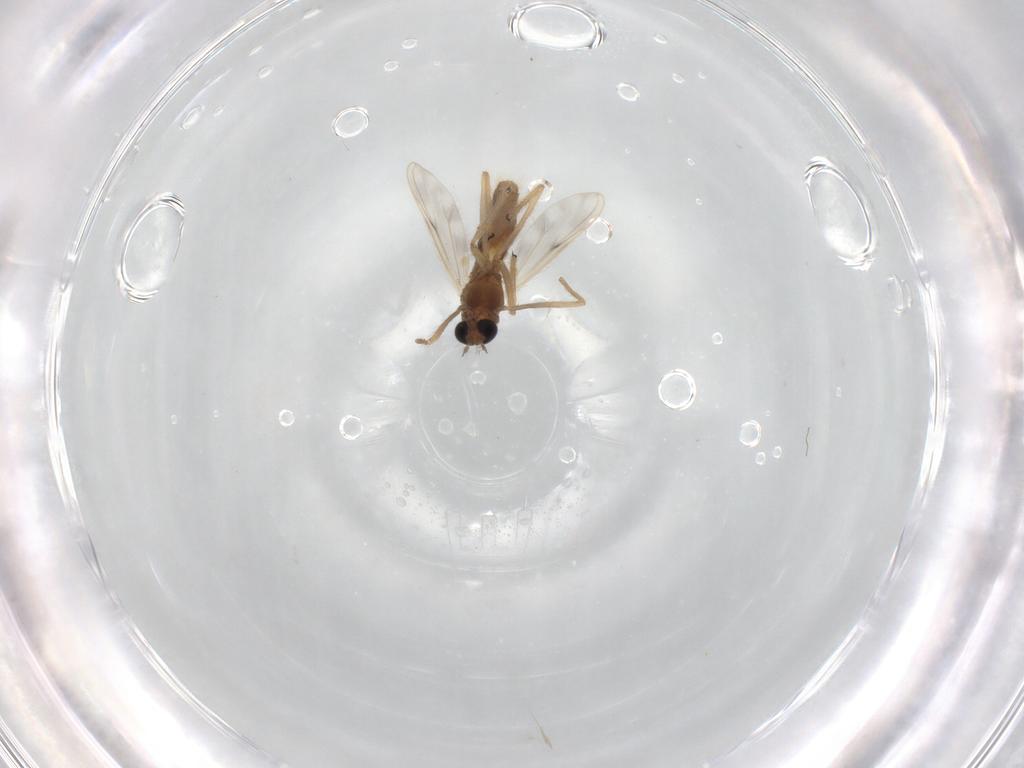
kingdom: Animalia
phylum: Arthropoda
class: Insecta
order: Diptera
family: Chironomidae
